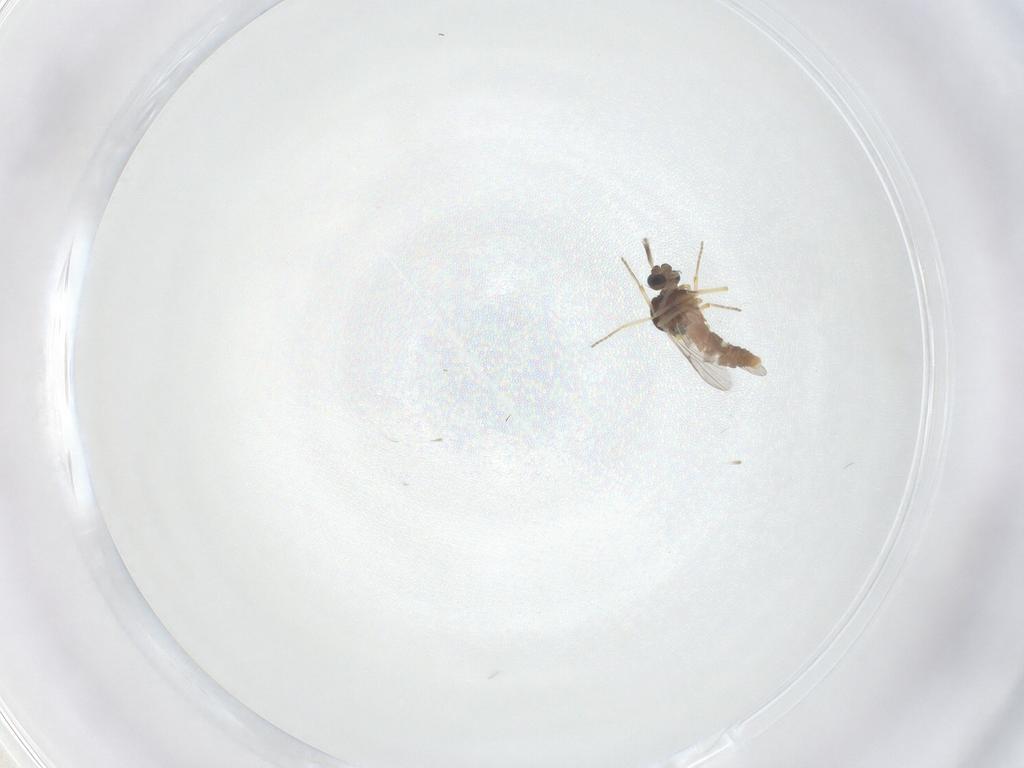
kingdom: Animalia
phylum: Arthropoda
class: Insecta
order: Diptera
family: Ceratopogonidae
